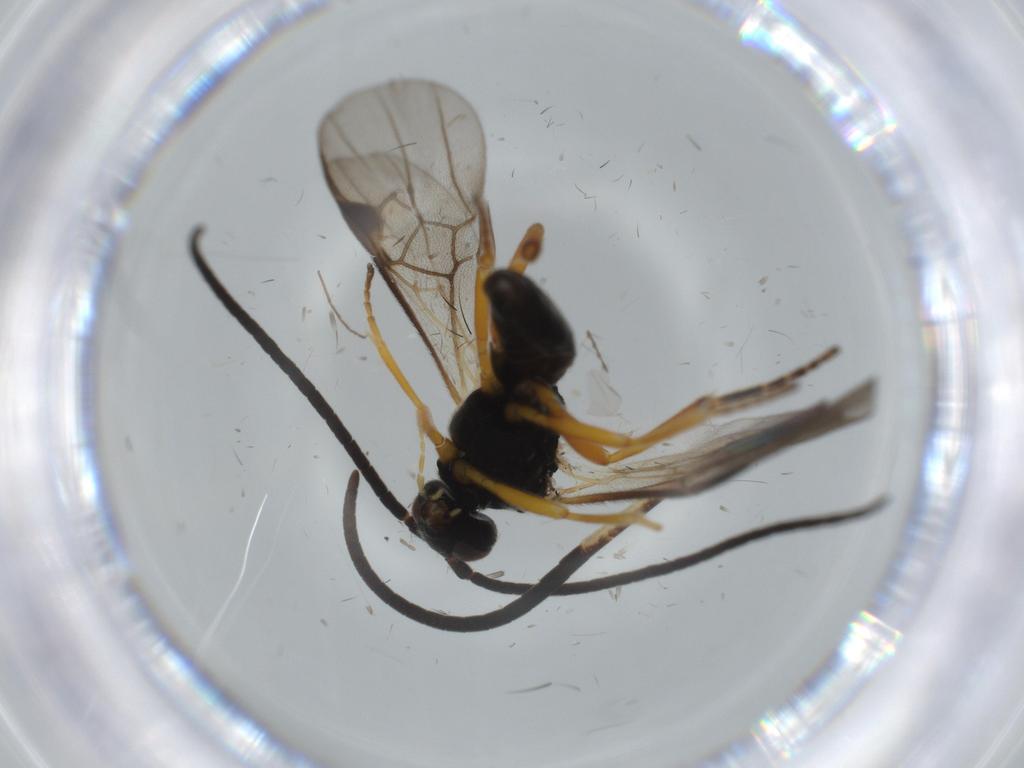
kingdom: Animalia
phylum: Arthropoda
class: Insecta
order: Hymenoptera
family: Braconidae
